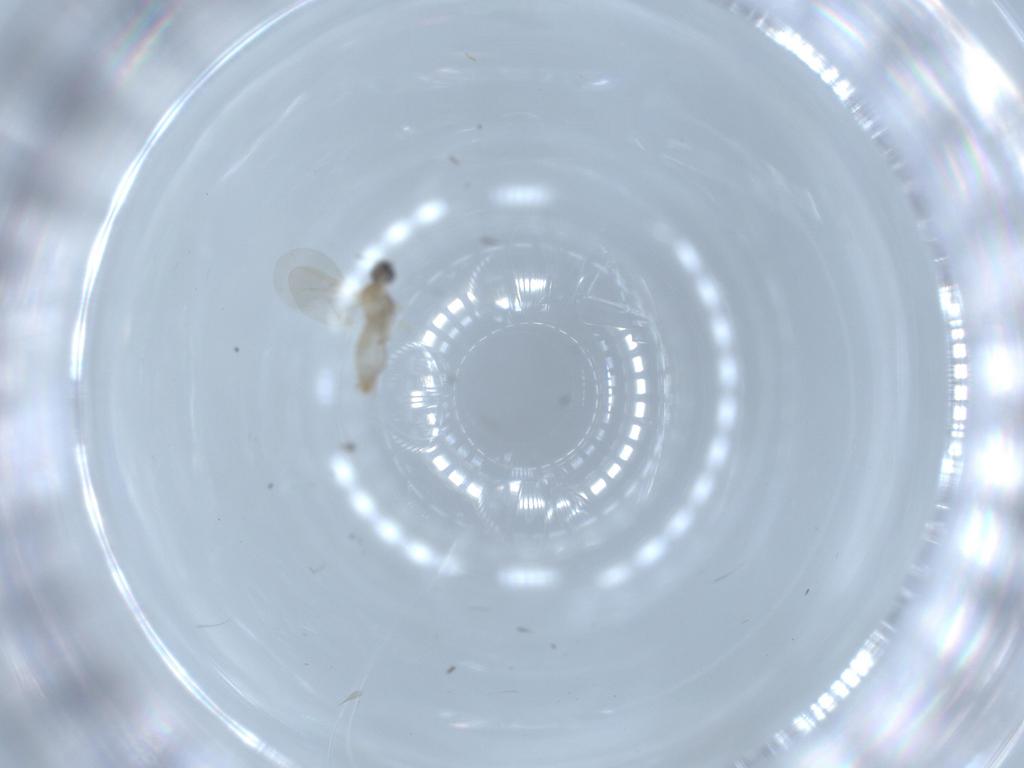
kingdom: Animalia
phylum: Arthropoda
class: Insecta
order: Diptera
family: Cecidomyiidae
